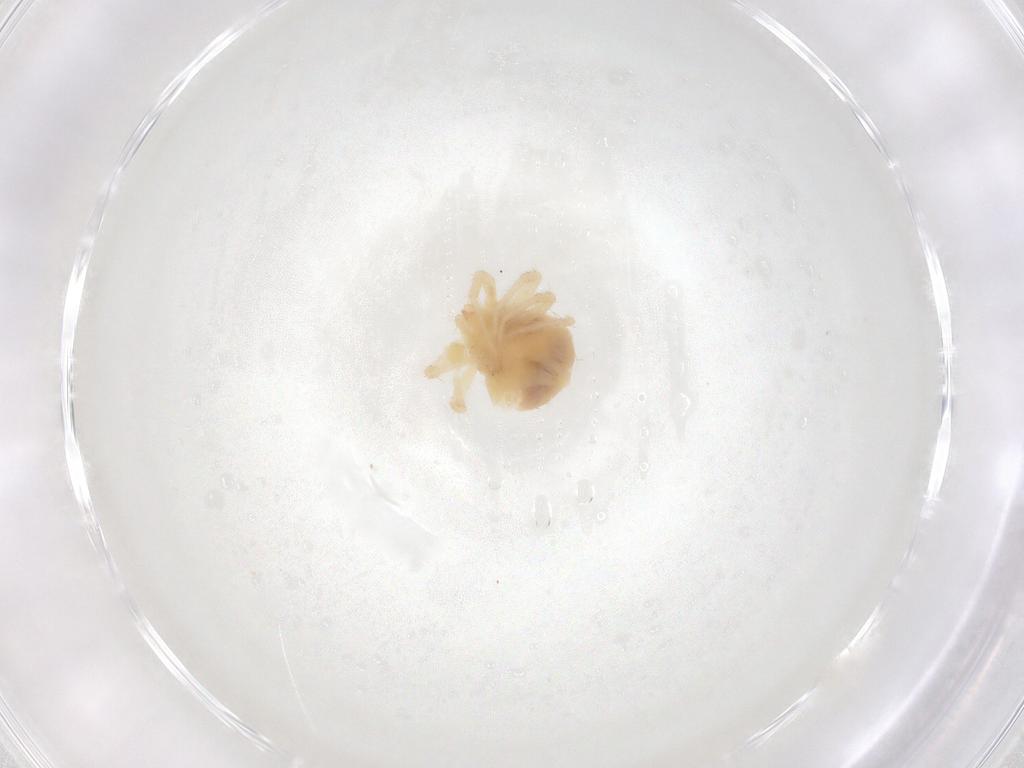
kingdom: Animalia
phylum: Arthropoda
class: Arachnida
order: Trombidiformes
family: Anystidae
